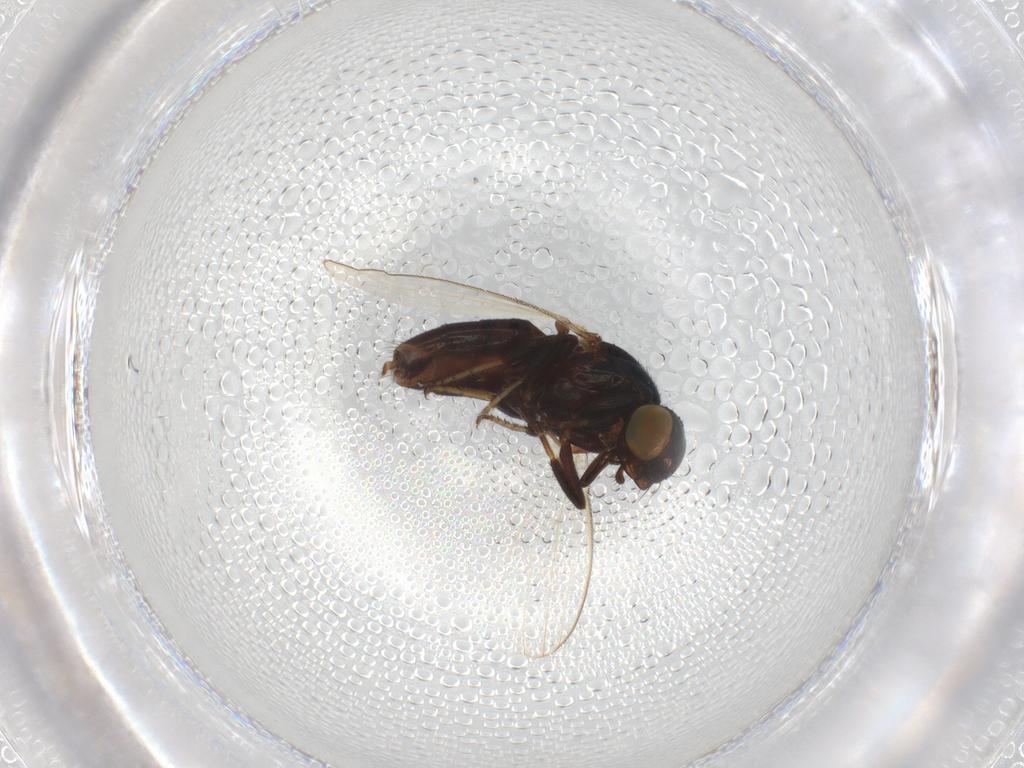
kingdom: Animalia
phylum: Arthropoda
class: Insecta
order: Diptera
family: Milichiidae
